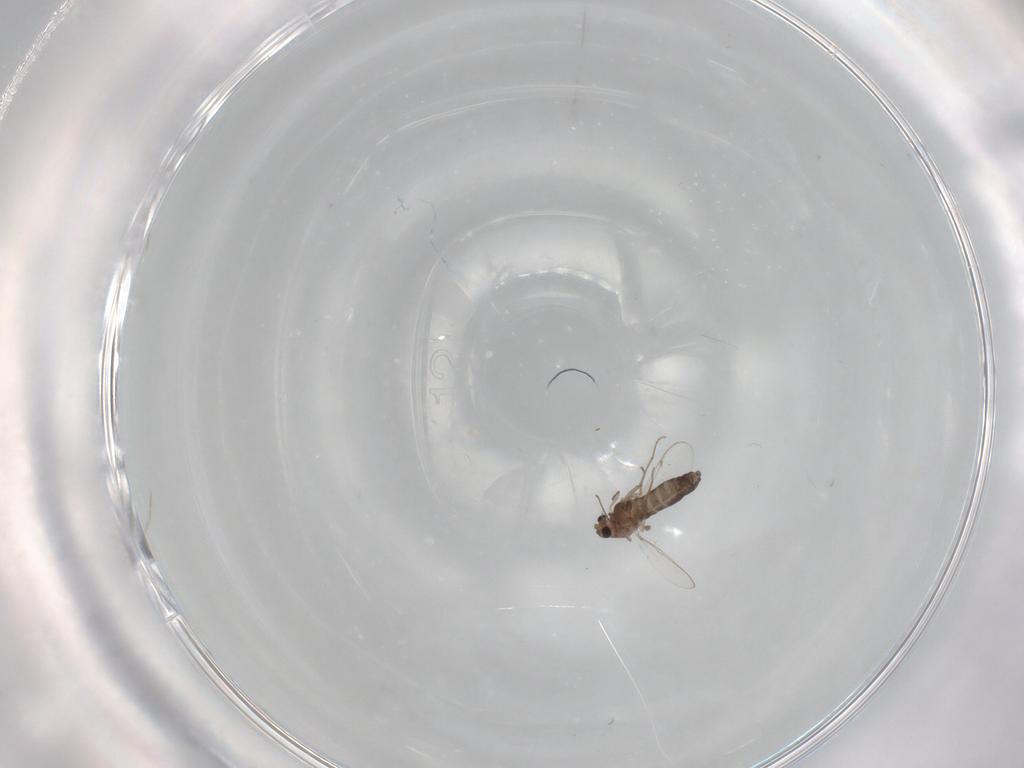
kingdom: Animalia
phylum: Arthropoda
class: Insecta
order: Diptera
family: Chironomidae
